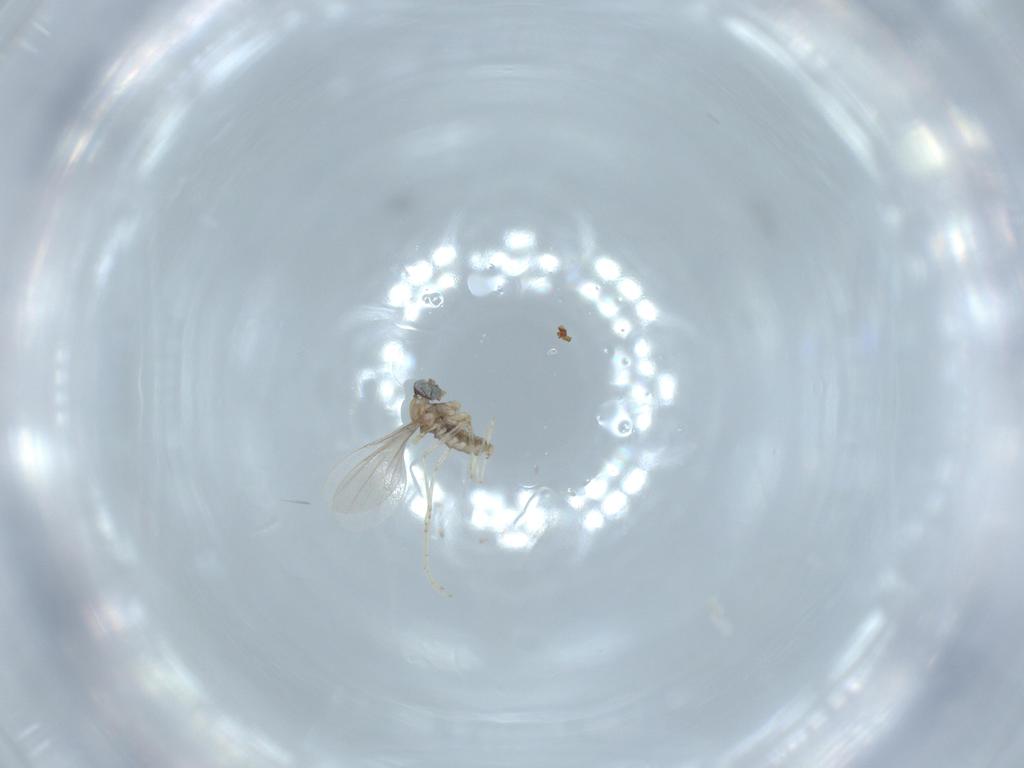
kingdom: Animalia
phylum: Arthropoda
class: Insecta
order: Diptera
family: Cecidomyiidae
